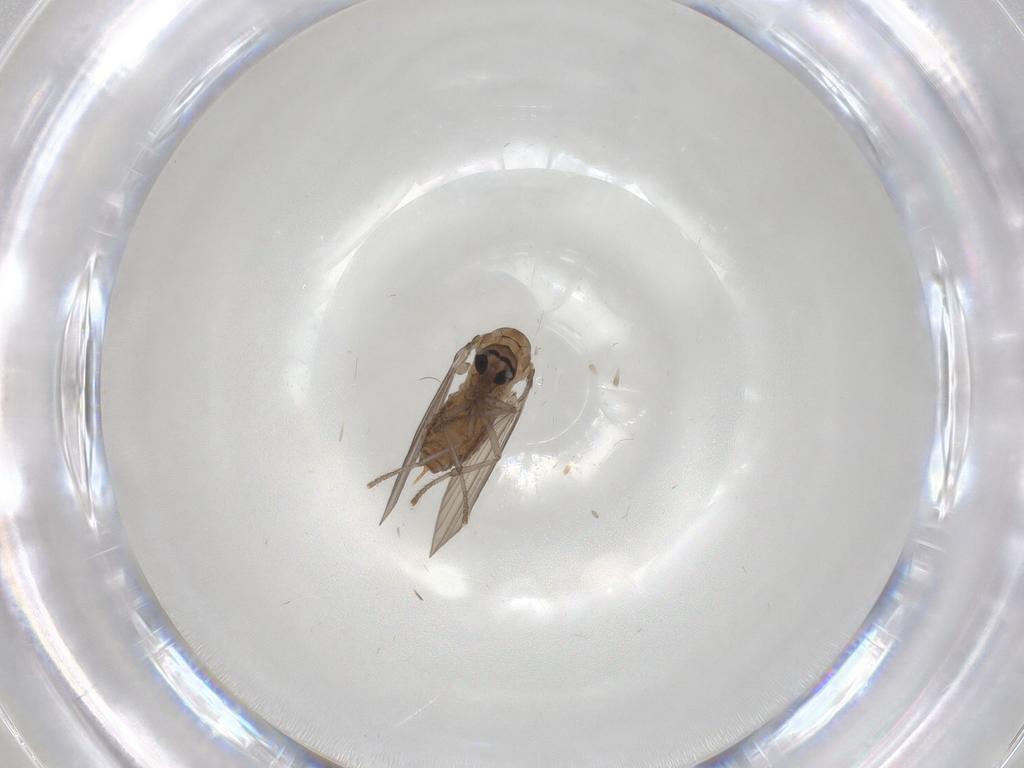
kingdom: Animalia
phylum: Arthropoda
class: Insecta
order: Diptera
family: Psychodidae
